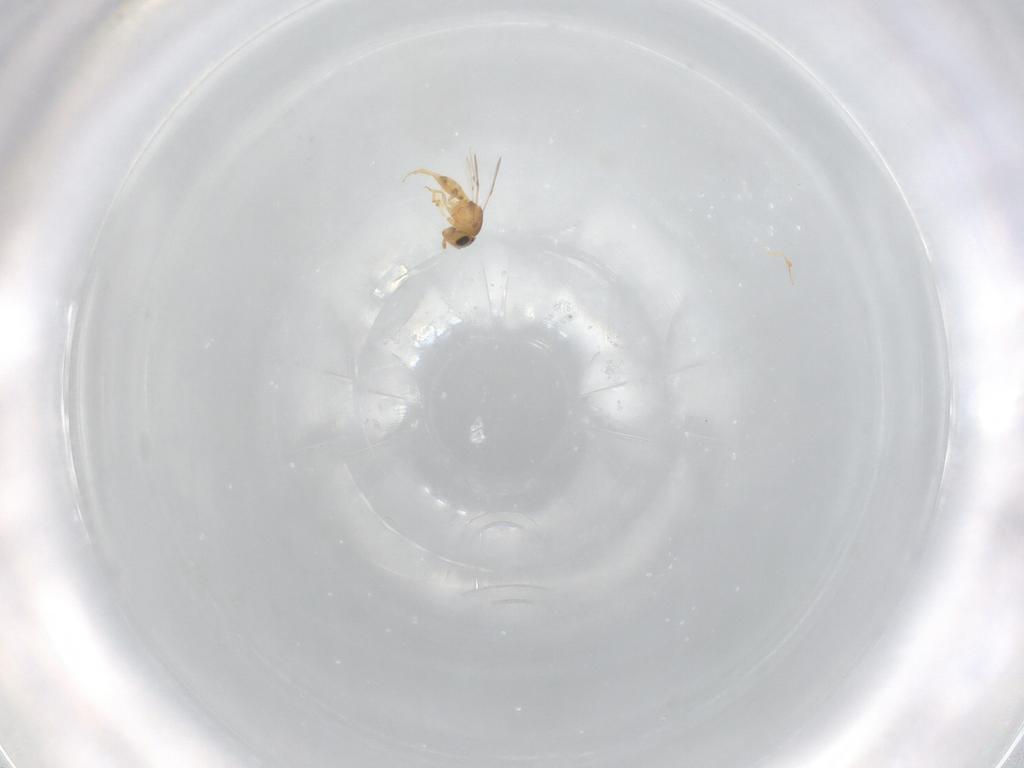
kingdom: Animalia
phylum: Arthropoda
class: Insecta
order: Hymenoptera
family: Scelionidae
